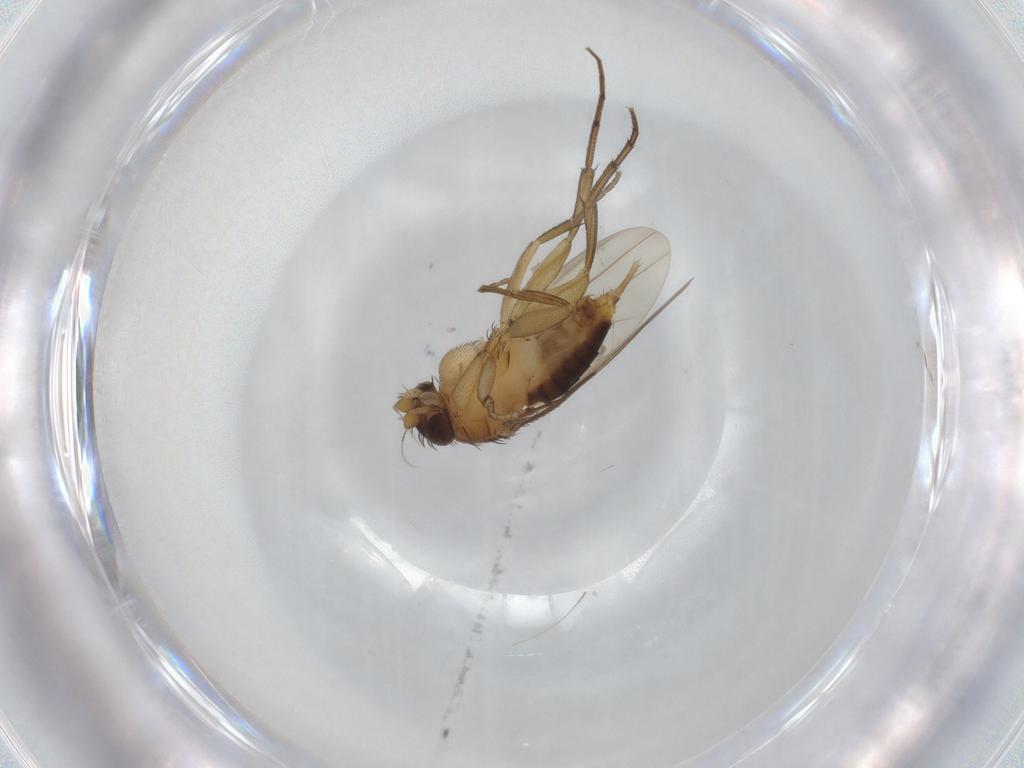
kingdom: Animalia
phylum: Arthropoda
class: Insecta
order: Diptera
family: Phoridae
